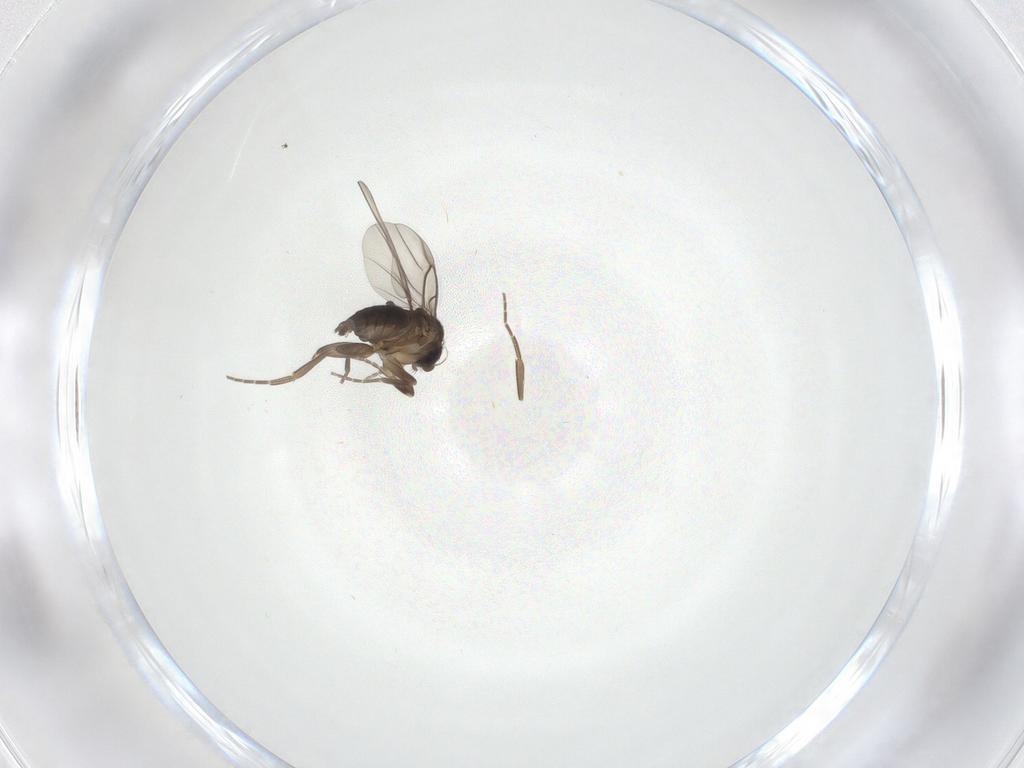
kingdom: Animalia
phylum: Arthropoda
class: Insecta
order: Diptera
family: Phoridae
